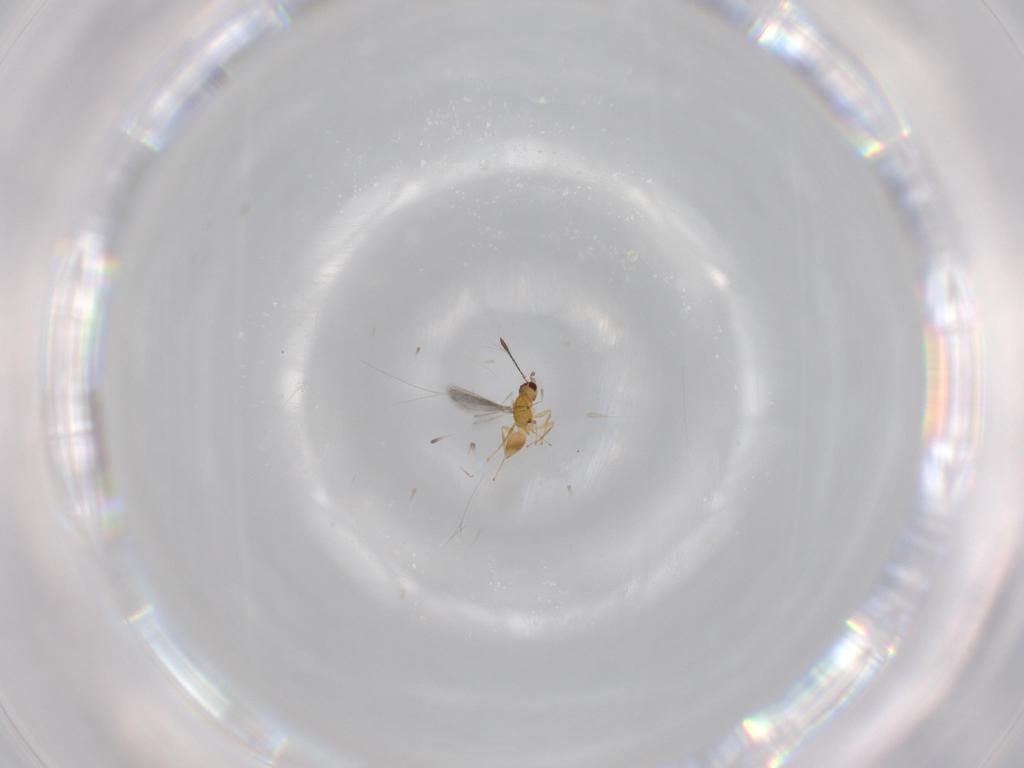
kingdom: Animalia
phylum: Arthropoda
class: Insecta
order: Hymenoptera
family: Mymaridae
